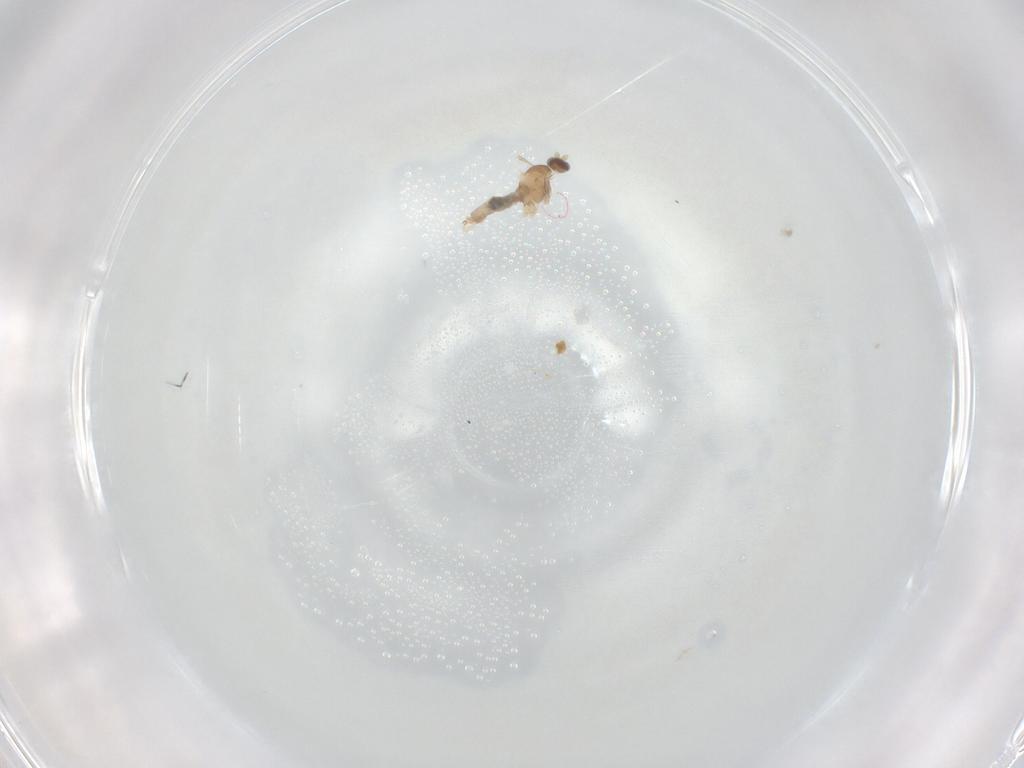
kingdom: Animalia
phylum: Arthropoda
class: Insecta
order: Diptera
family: Cecidomyiidae
